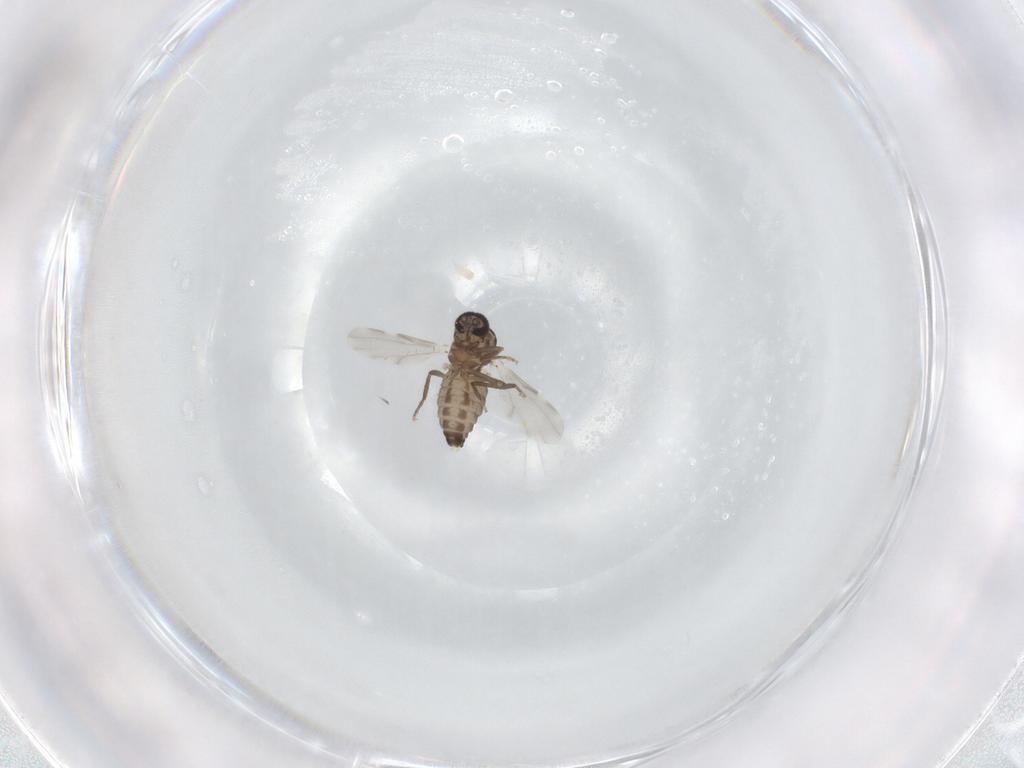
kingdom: Animalia
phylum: Arthropoda
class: Insecta
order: Diptera
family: Ceratopogonidae
